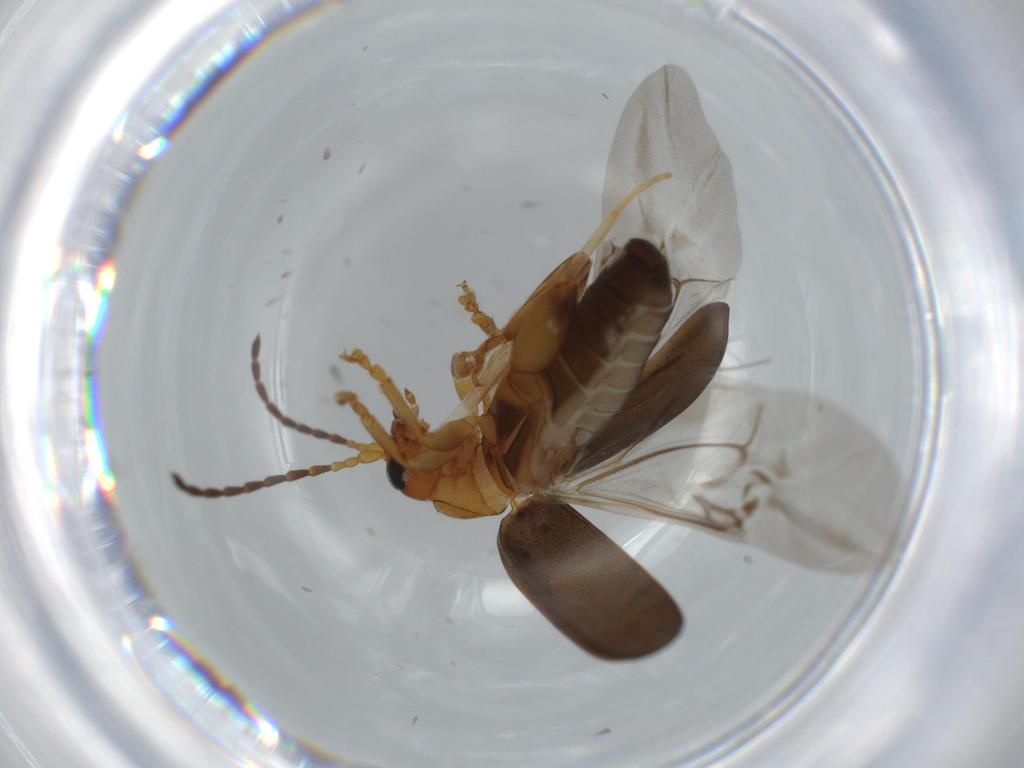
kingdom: Animalia
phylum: Arthropoda
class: Insecta
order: Coleoptera
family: Chrysomelidae
